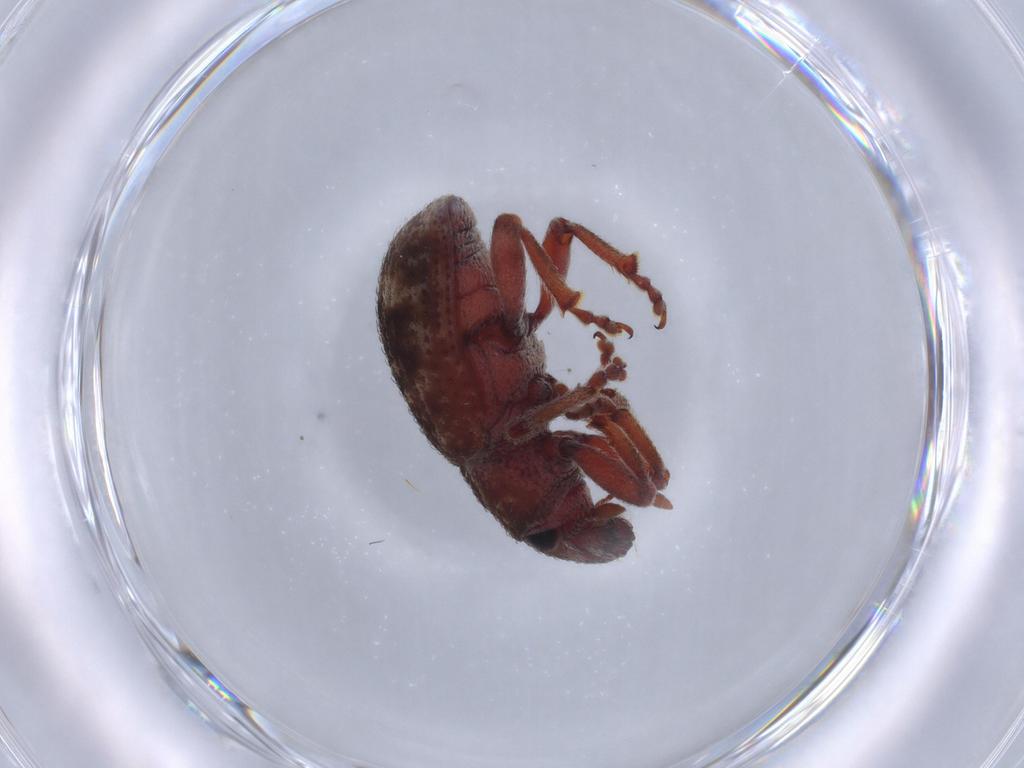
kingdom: Animalia
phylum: Arthropoda
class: Insecta
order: Coleoptera
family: Curculionidae
